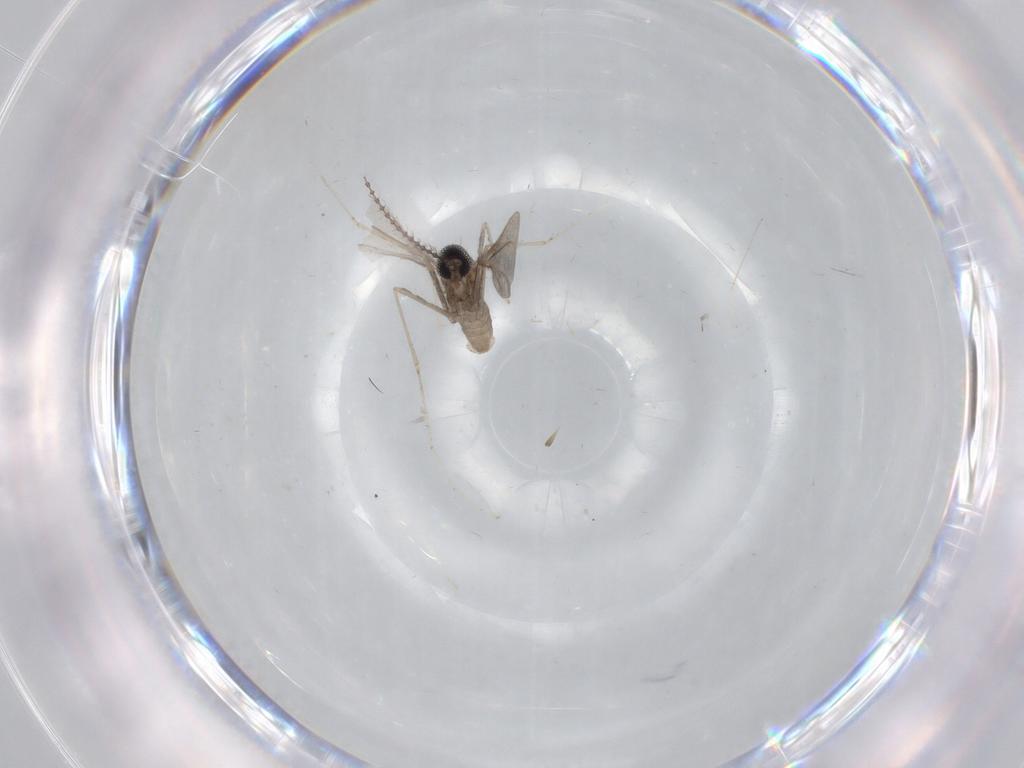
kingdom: Animalia
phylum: Arthropoda
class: Insecta
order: Diptera
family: Cecidomyiidae
